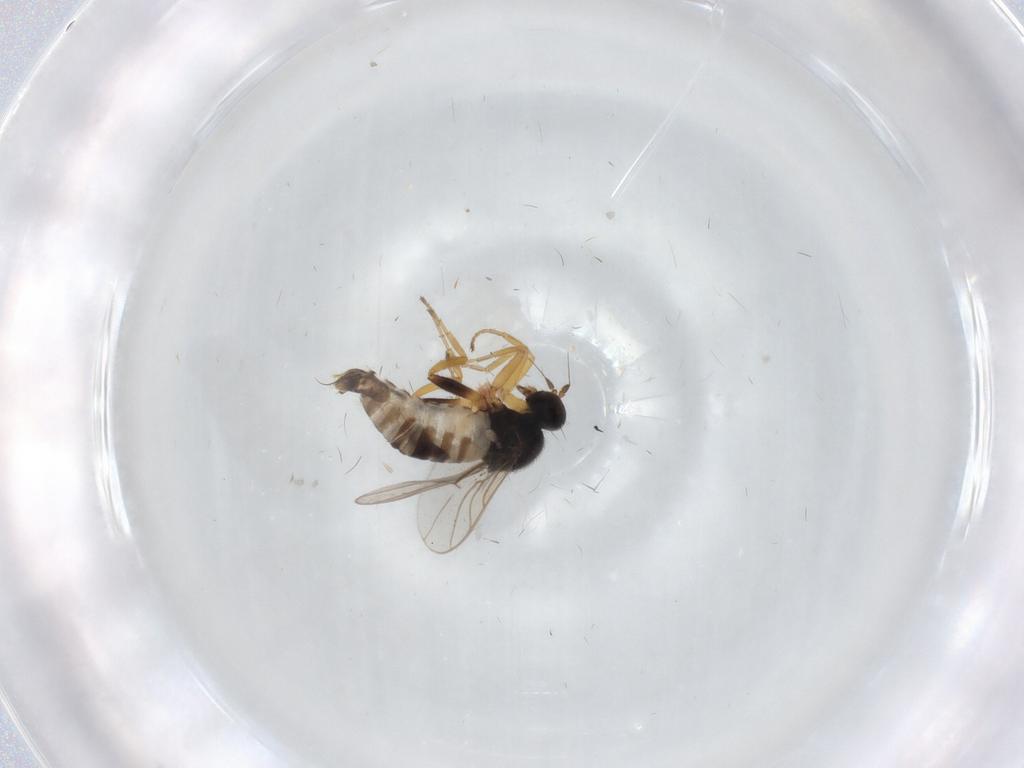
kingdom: Animalia
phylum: Arthropoda
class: Insecta
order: Diptera
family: Hybotidae
